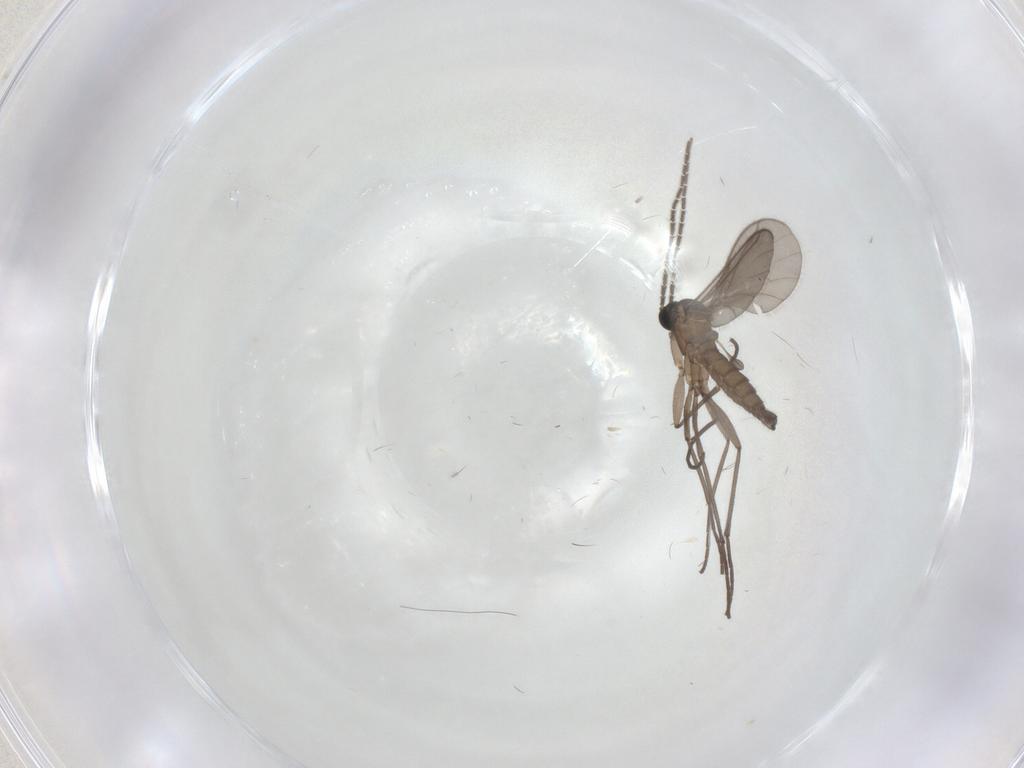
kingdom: Animalia
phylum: Arthropoda
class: Insecta
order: Diptera
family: Sciaridae
